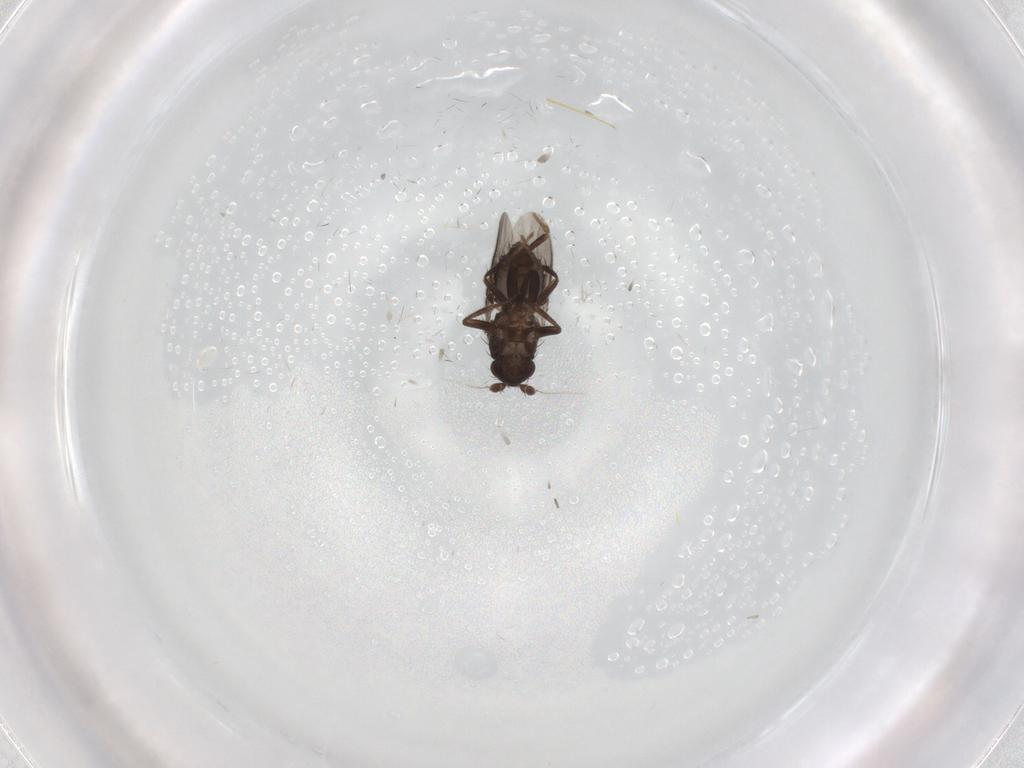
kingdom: Animalia
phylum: Arthropoda
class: Insecta
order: Diptera
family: Sphaeroceridae
